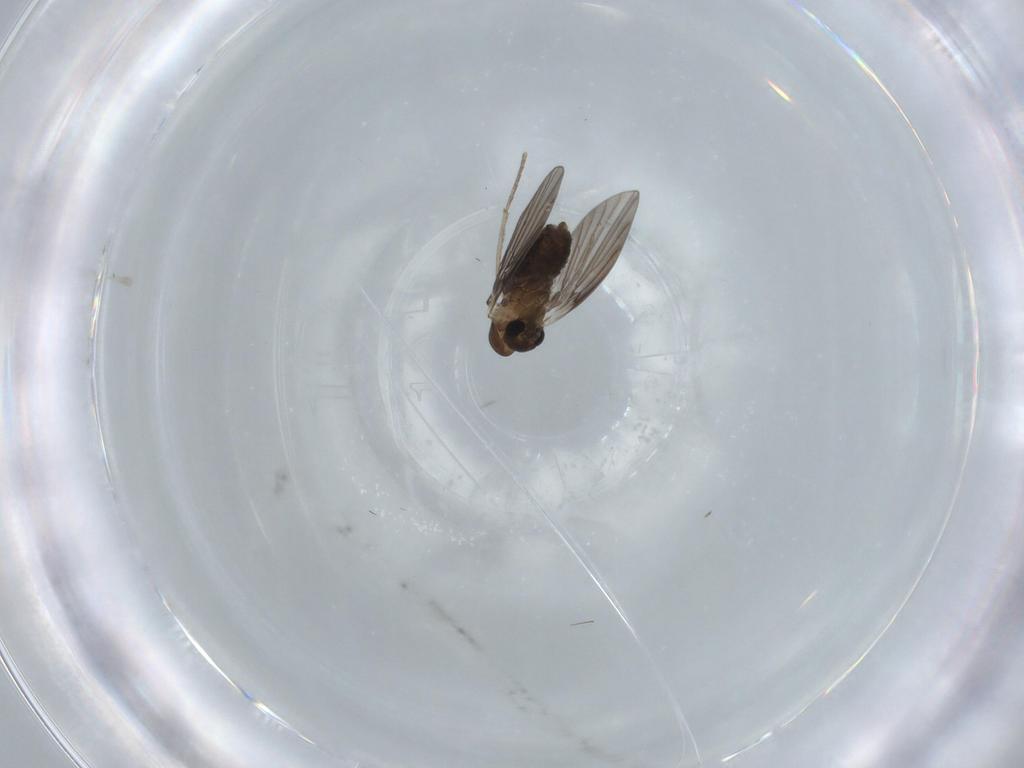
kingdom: Animalia
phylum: Arthropoda
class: Insecta
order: Diptera
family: Psychodidae
